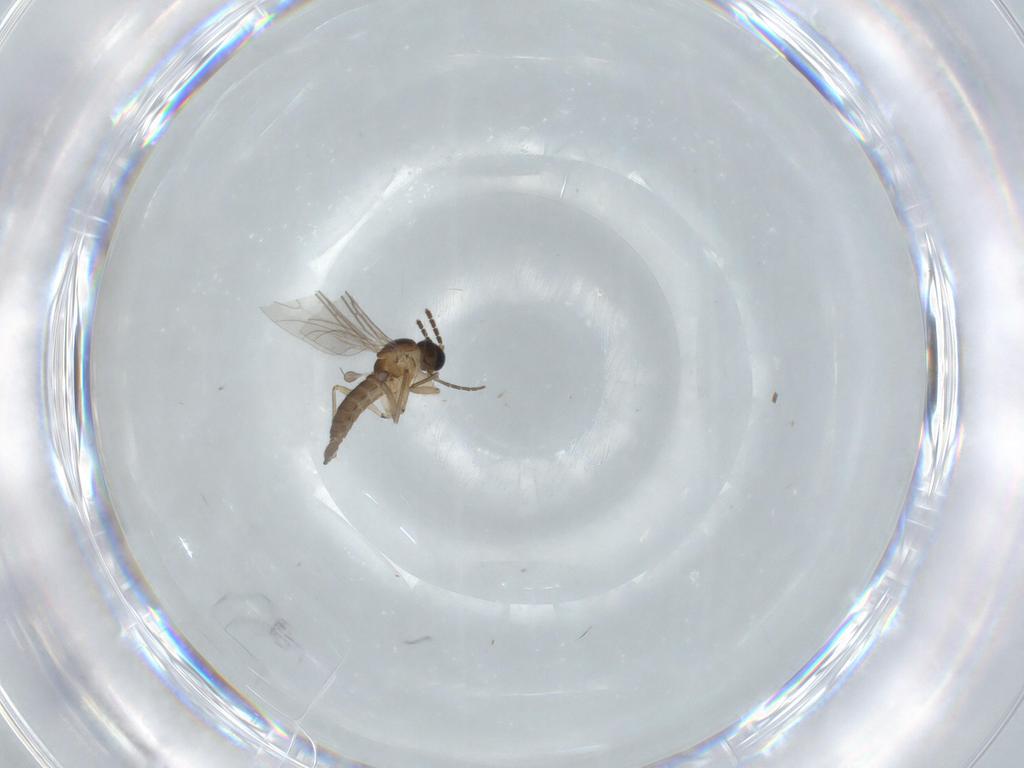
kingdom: Animalia
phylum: Arthropoda
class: Insecta
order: Diptera
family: Sciaridae
